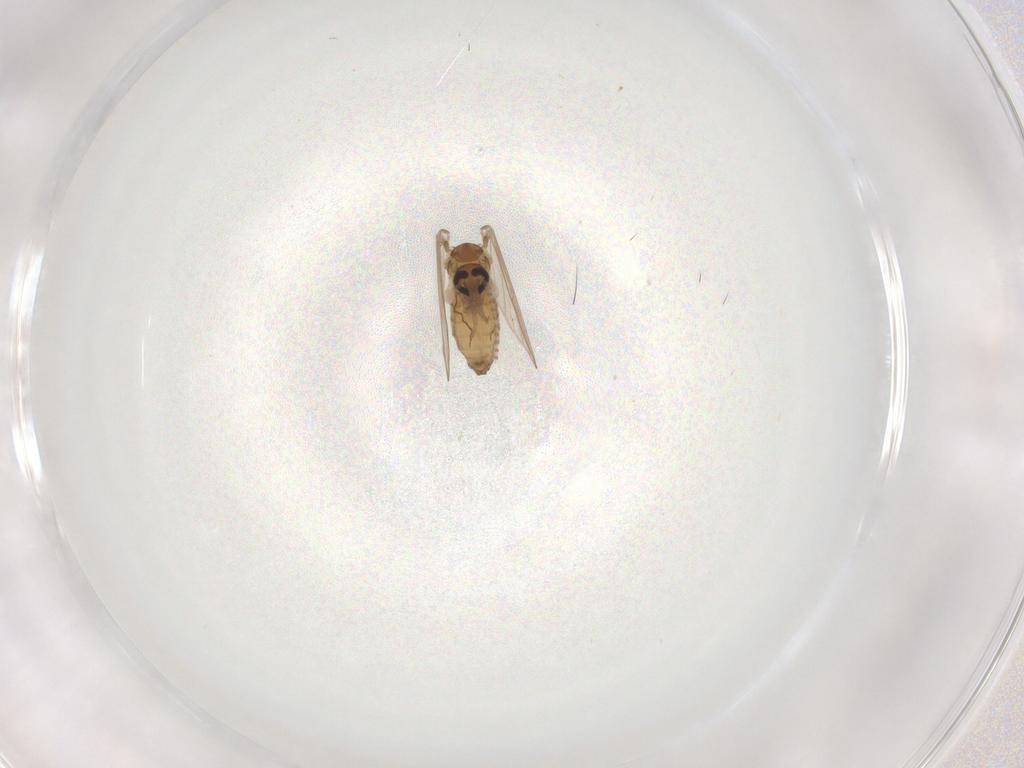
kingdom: Animalia
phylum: Arthropoda
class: Insecta
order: Diptera
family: Psychodidae
